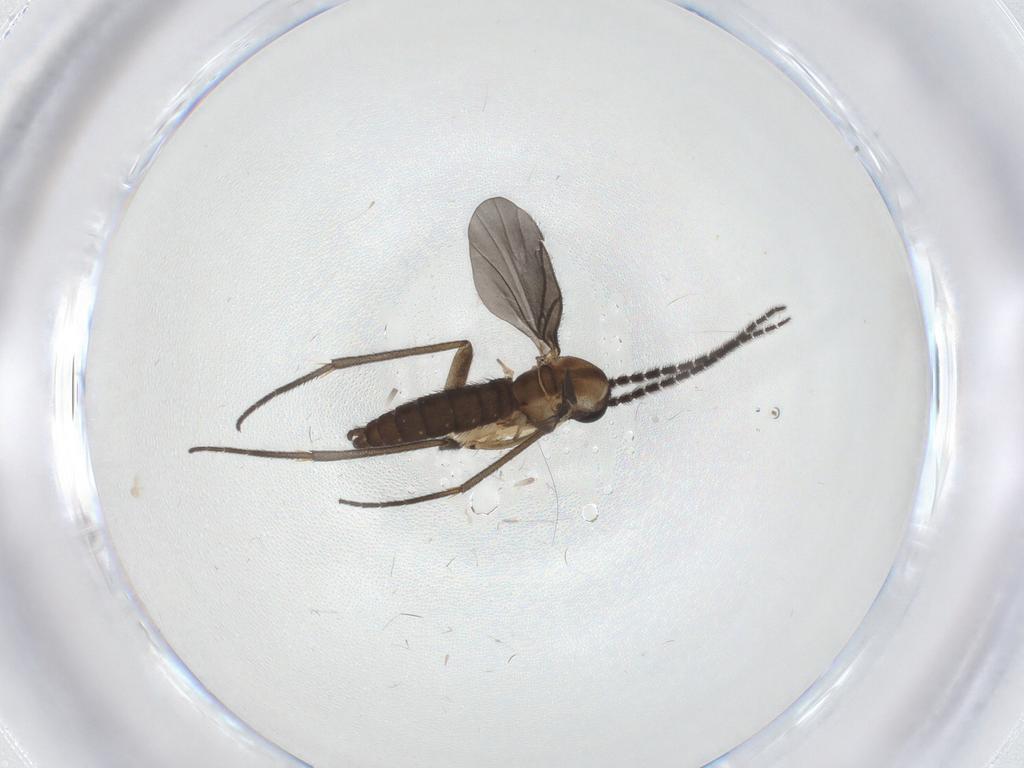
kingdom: Animalia
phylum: Arthropoda
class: Insecta
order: Diptera
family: Sciaridae
